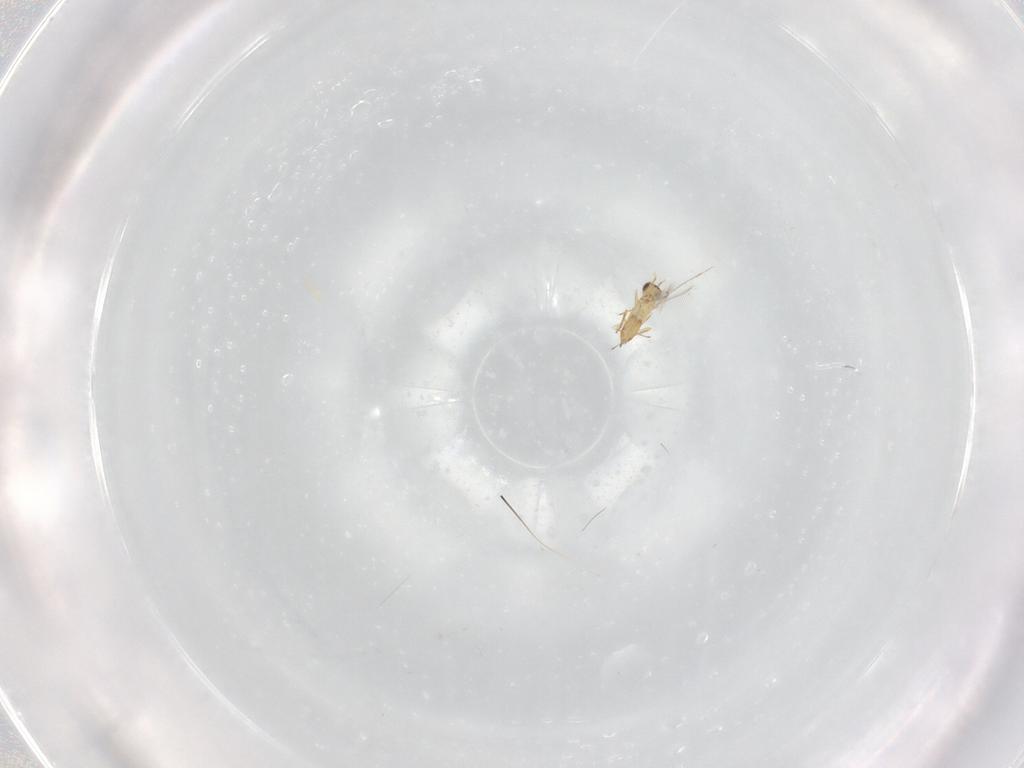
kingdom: Animalia
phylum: Arthropoda
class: Insecta
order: Hymenoptera
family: Mymaridae
